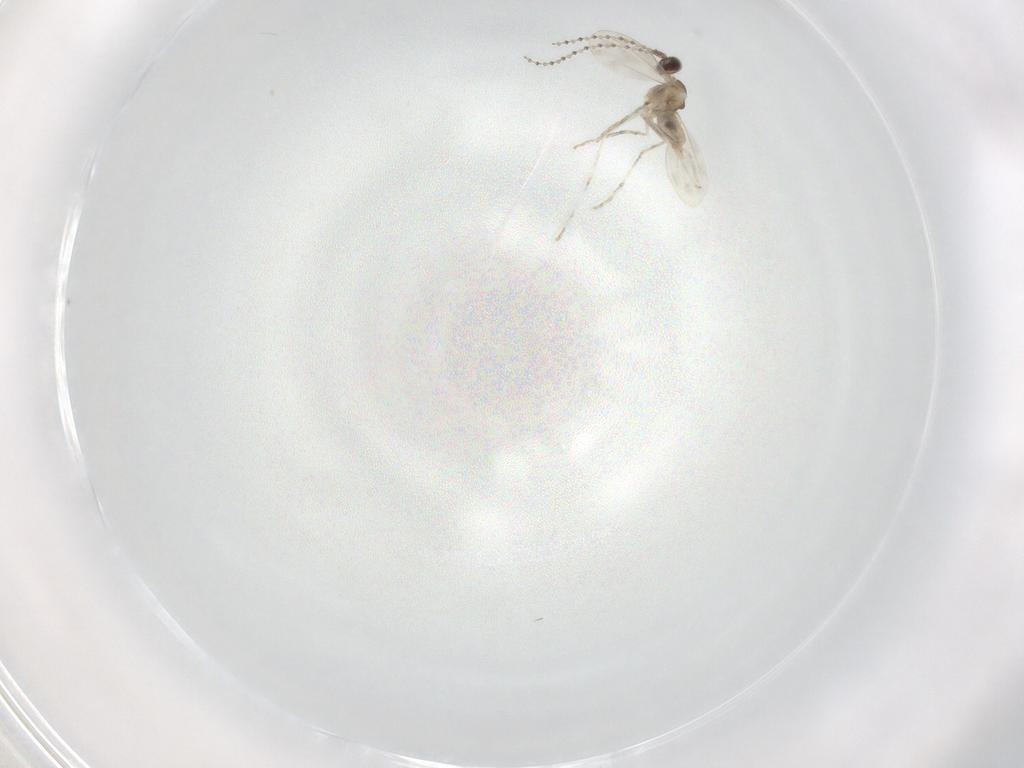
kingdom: Animalia
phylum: Arthropoda
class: Insecta
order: Diptera
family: Cecidomyiidae
